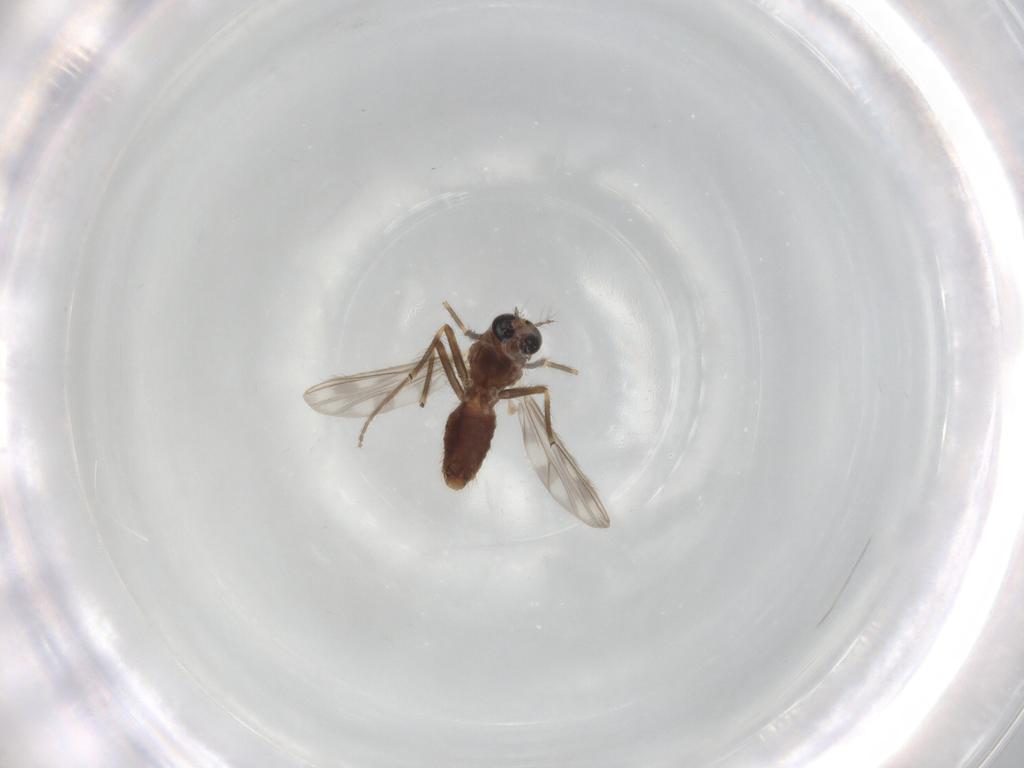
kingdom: Animalia
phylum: Arthropoda
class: Insecta
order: Diptera
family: Chironomidae
